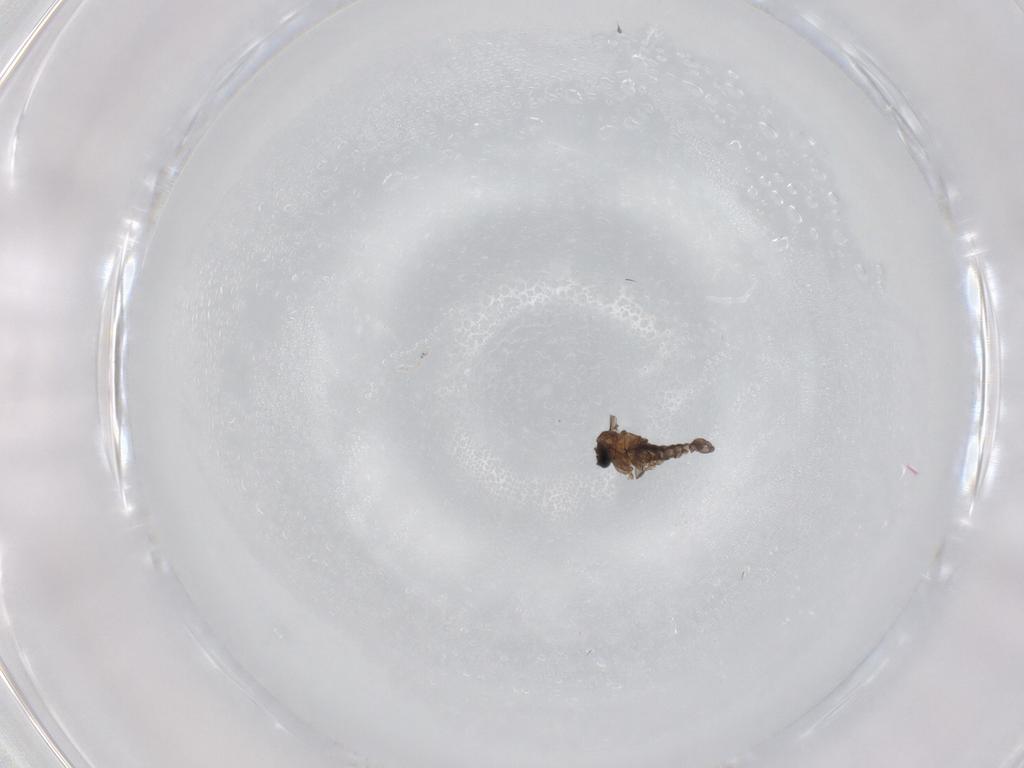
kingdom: Animalia
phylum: Arthropoda
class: Insecta
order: Diptera
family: Sciaridae
